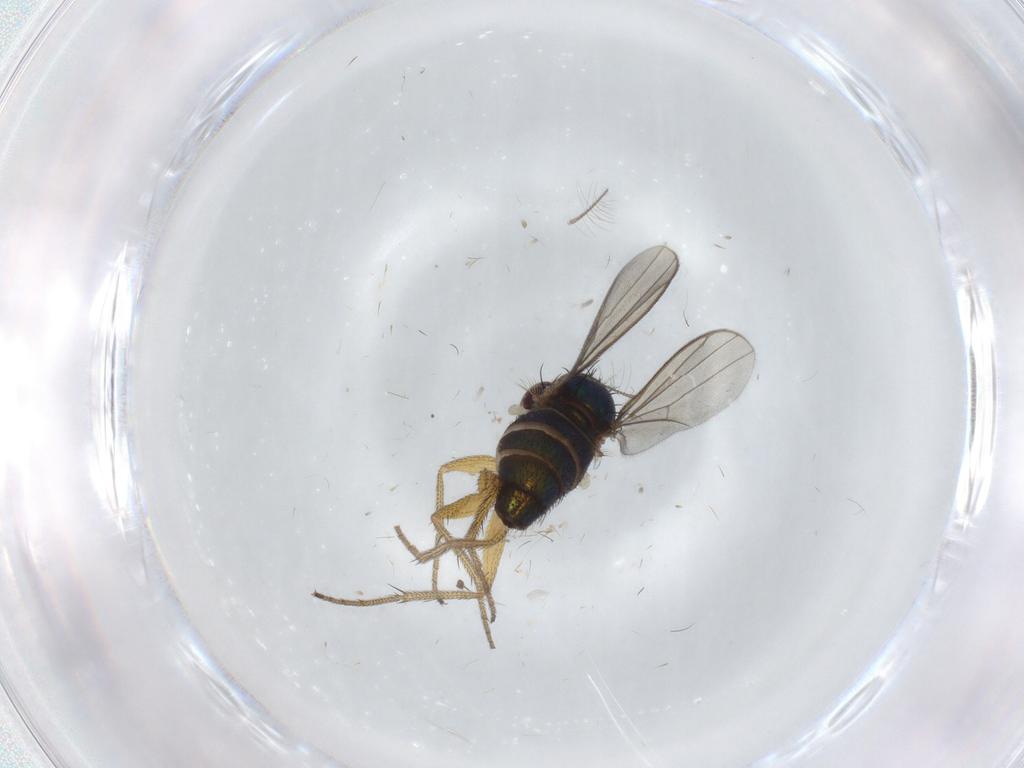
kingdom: Animalia
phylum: Arthropoda
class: Insecta
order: Diptera
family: Dolichopodidae
